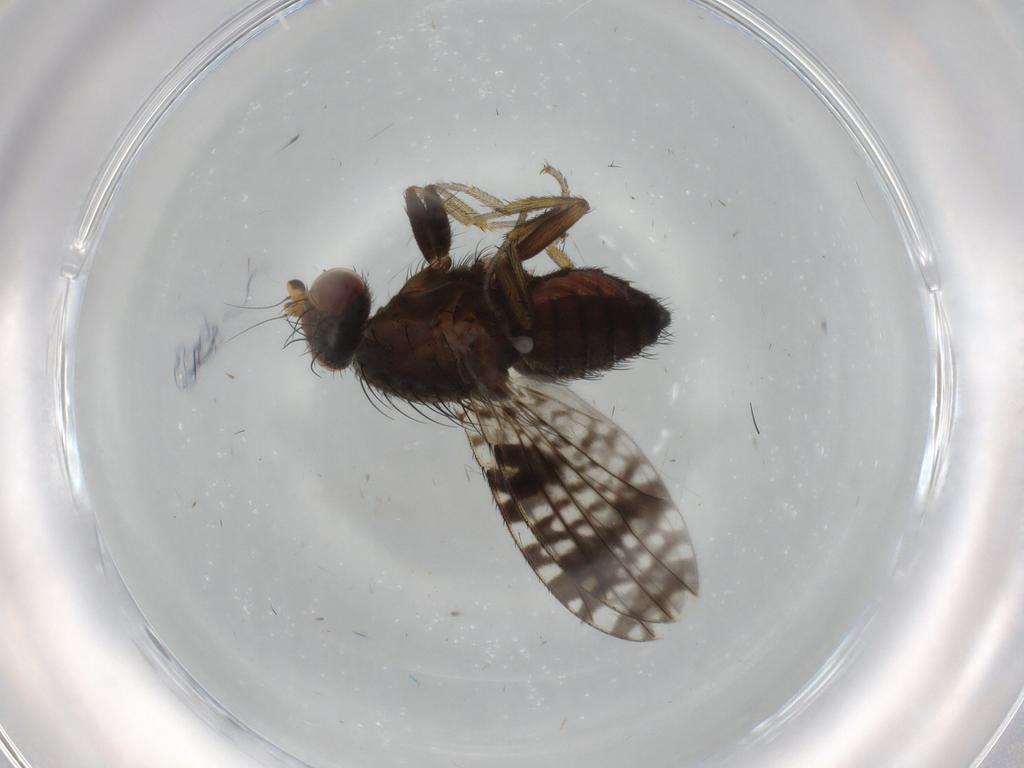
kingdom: Animalia
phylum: Arthropoda
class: Insecta
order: Diptera
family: Tephritidae
